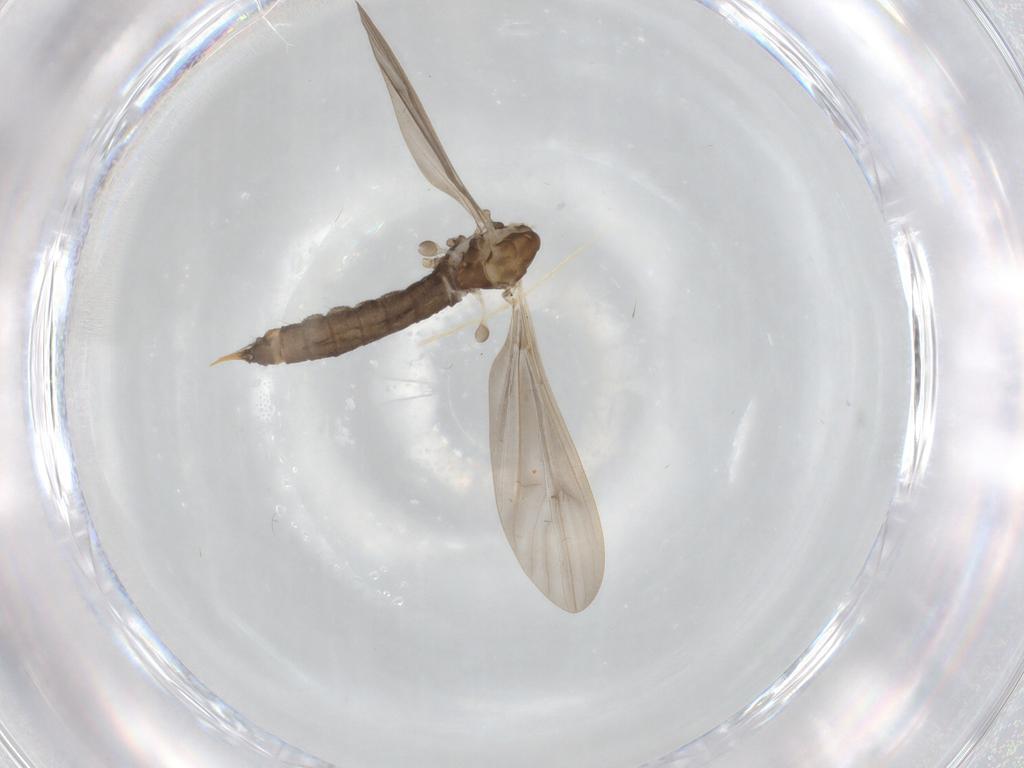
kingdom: Animalia
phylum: Arthropoda
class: Insecta
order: Diptera
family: Limoniidae
